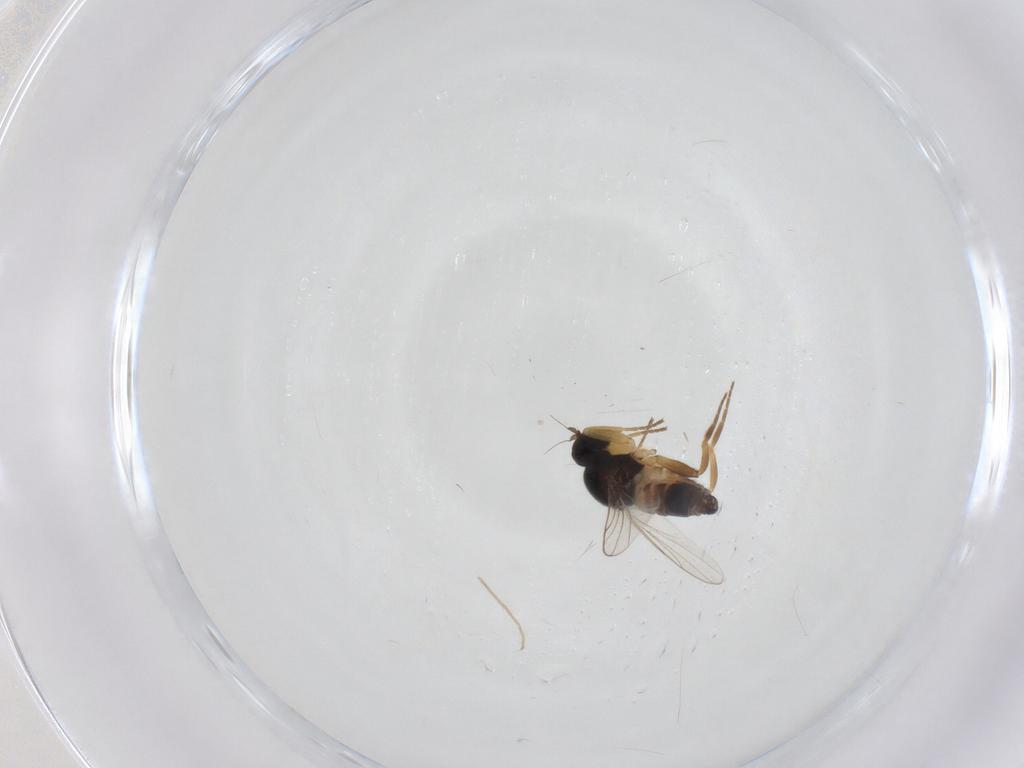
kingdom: Animalia
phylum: Arthropoda
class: Insecta
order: Diptera
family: Hybotidae
